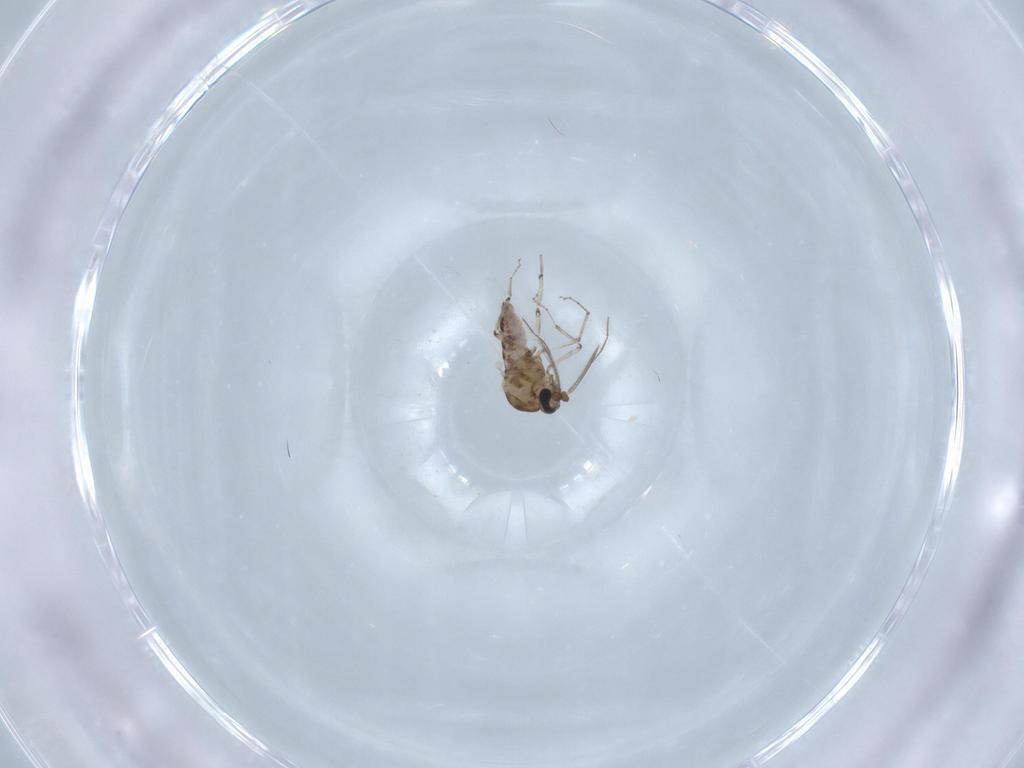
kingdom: Animalia
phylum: Arthropoda
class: Insecta
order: Diptera
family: Ceratopogonidae
